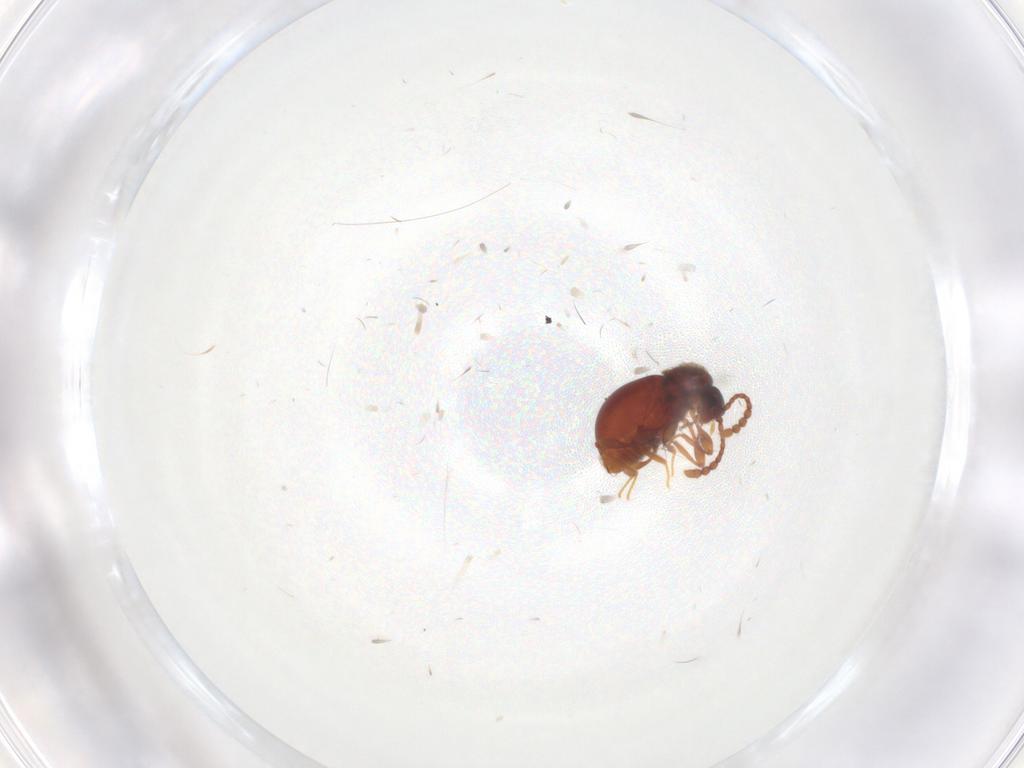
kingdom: Animalia
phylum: Arthropoda
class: Insecta
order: Coleoptera
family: Staphylinidae
